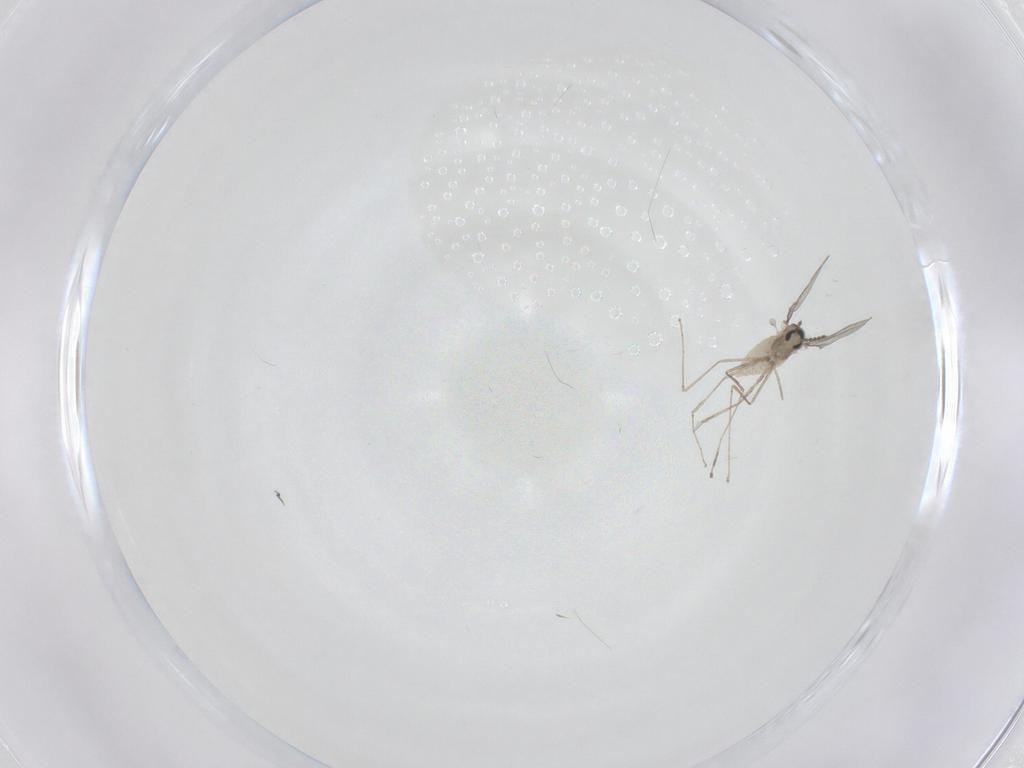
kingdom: Animalia
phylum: Arthropoda
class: Insecta
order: Diptera
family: Cecidomyiidae
